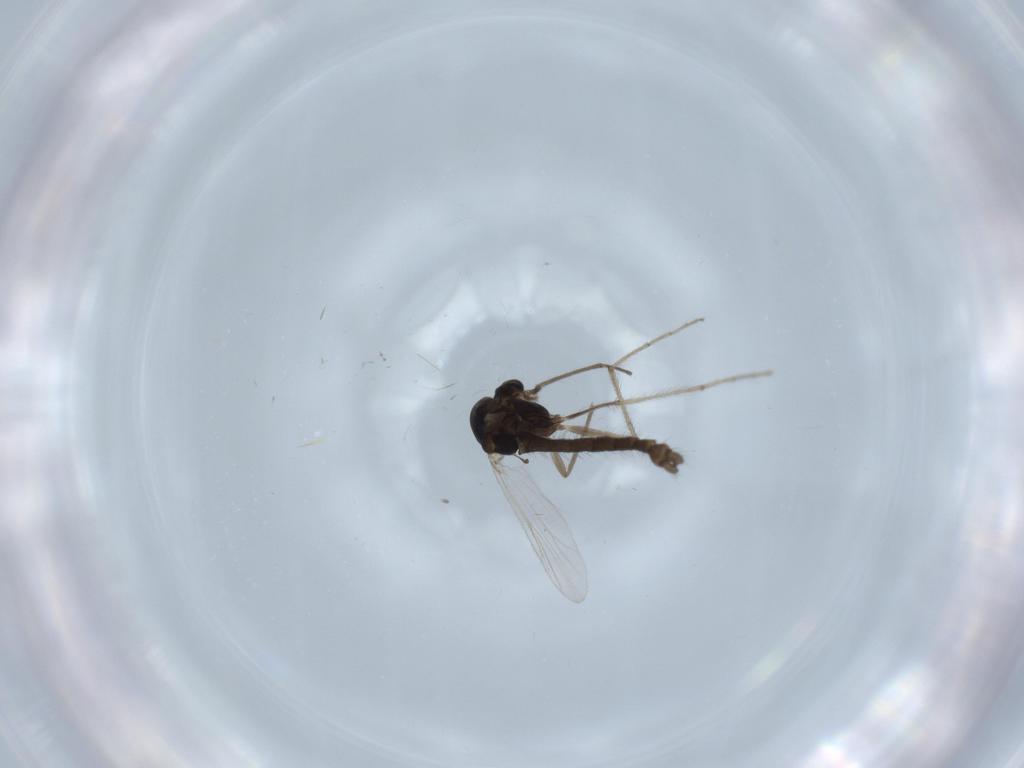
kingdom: Animalia
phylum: Arthropoda
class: Insecta
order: Diptera
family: Chironomidae
